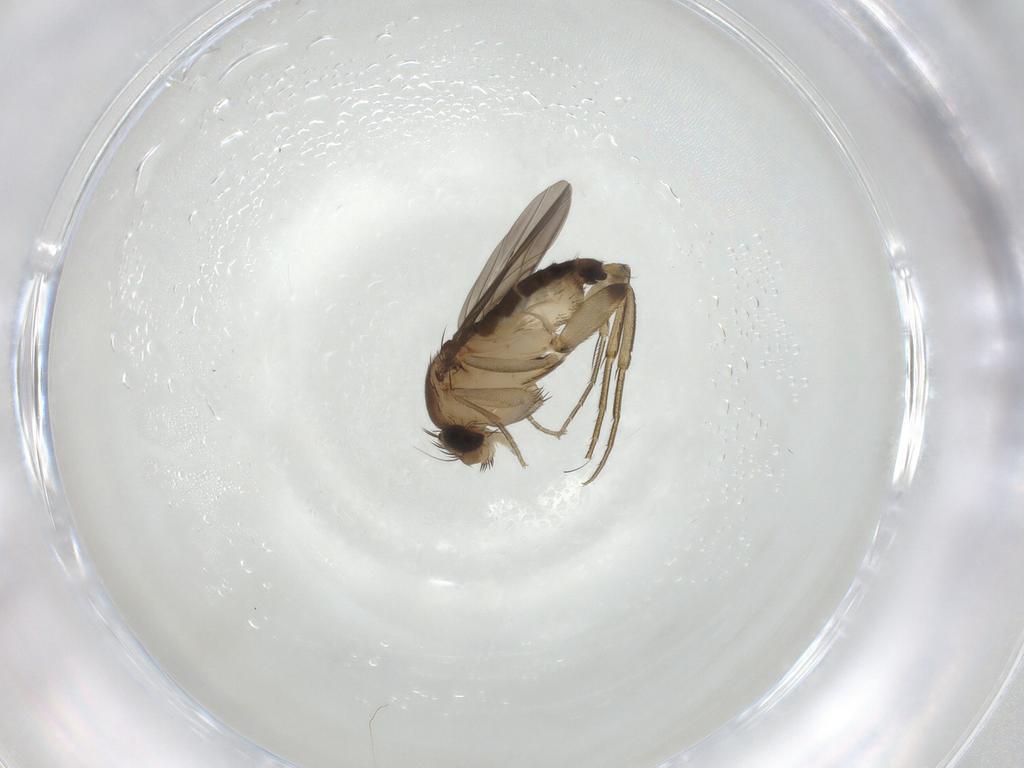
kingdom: Animalia
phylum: Arthropoda
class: Insecta
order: Diptera
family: Phoridae
